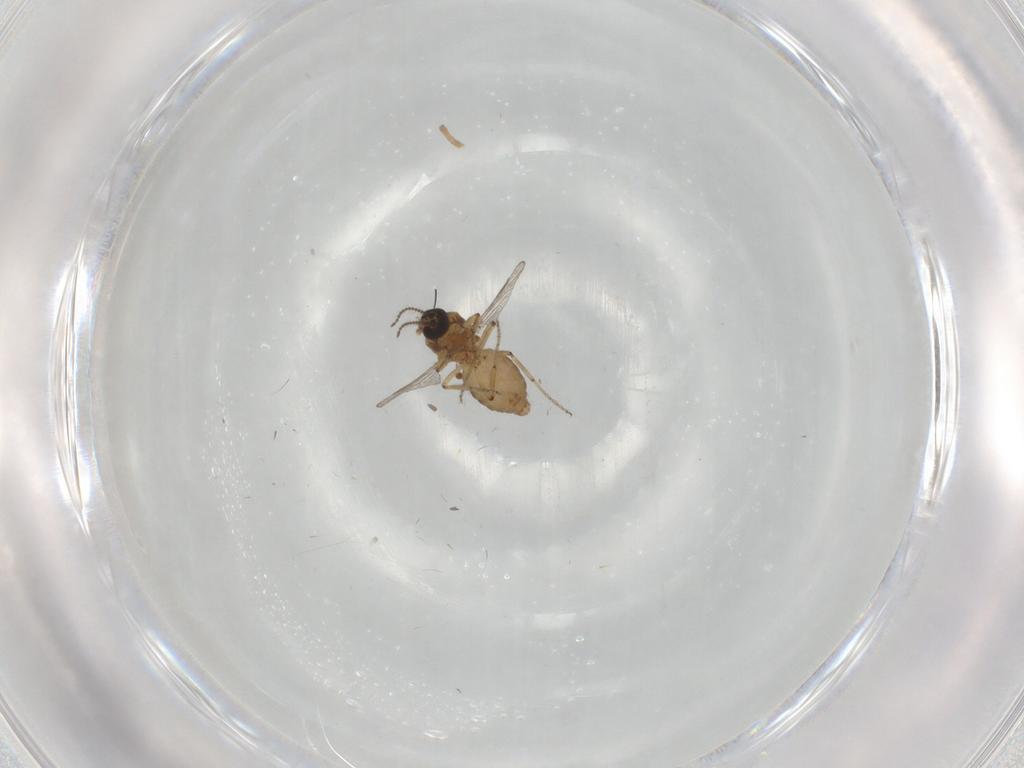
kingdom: Animalia
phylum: Arthropoda
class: Insecta
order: Diptera
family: Ceratopogonidae
